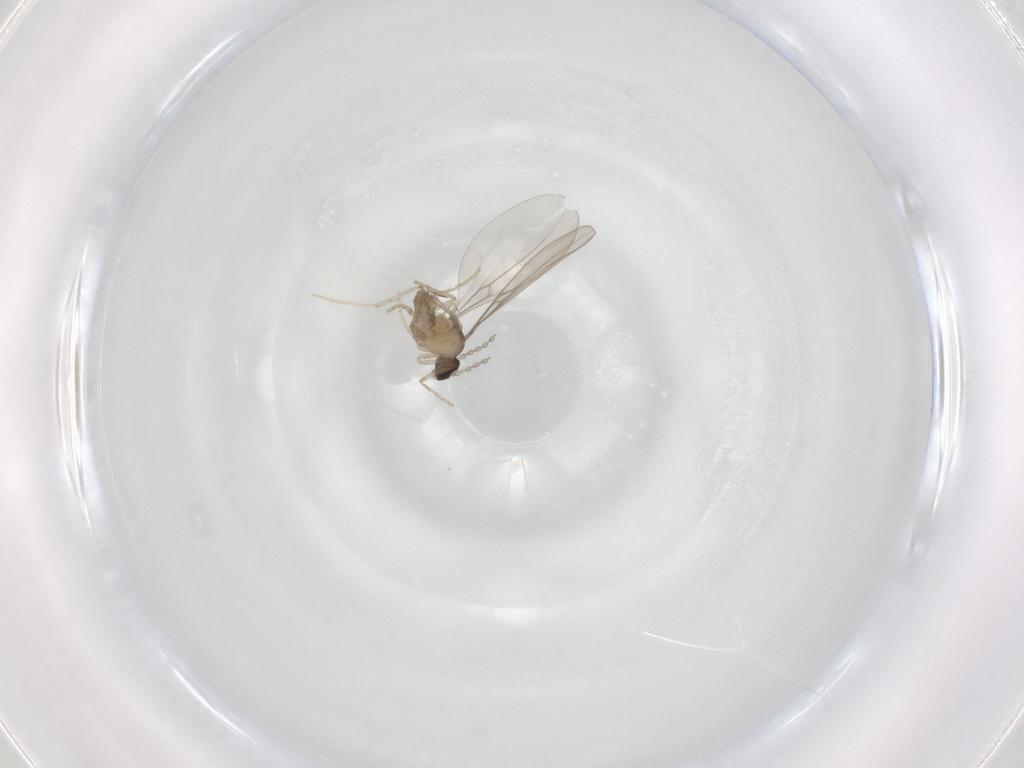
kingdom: Animalia
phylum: Arthropoda
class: Insecta
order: Diptera
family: Cecidomyiidae
